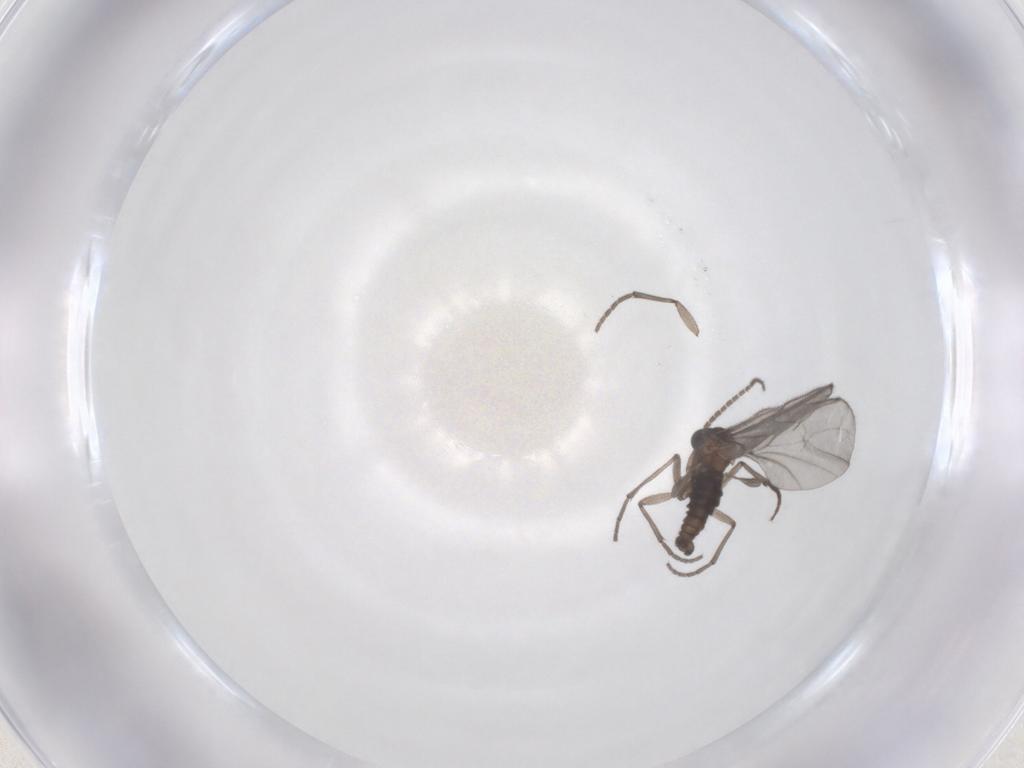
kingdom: Animalia
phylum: Arthropoda
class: Insecta
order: Diptera
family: Sciaridae
